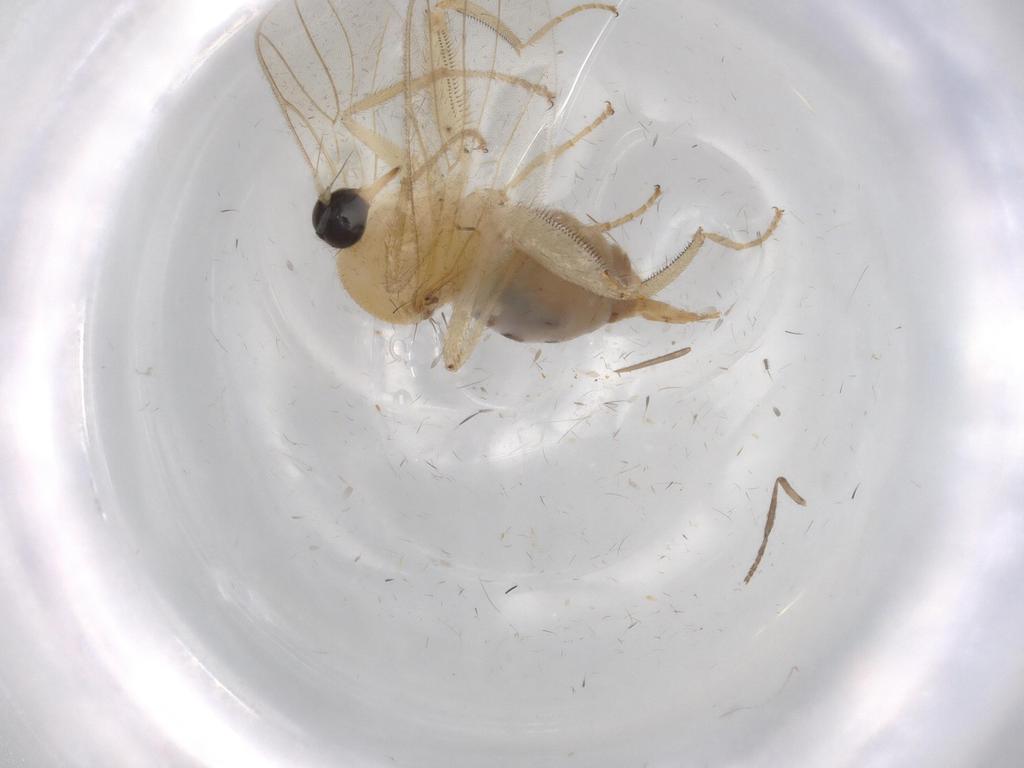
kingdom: Animalia
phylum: Arthropoda
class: Insecta
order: Diptera
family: Hybotidae
